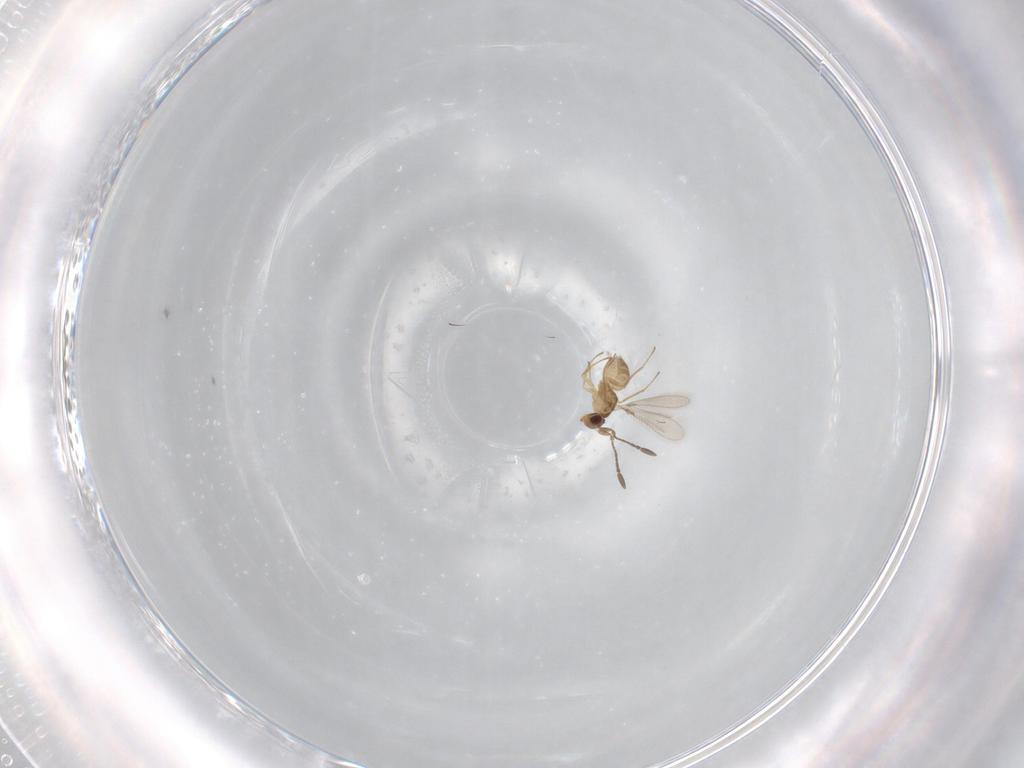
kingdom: Animalia
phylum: Arthropoda
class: Insecta
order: Hymenoptera
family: Mymaridae
